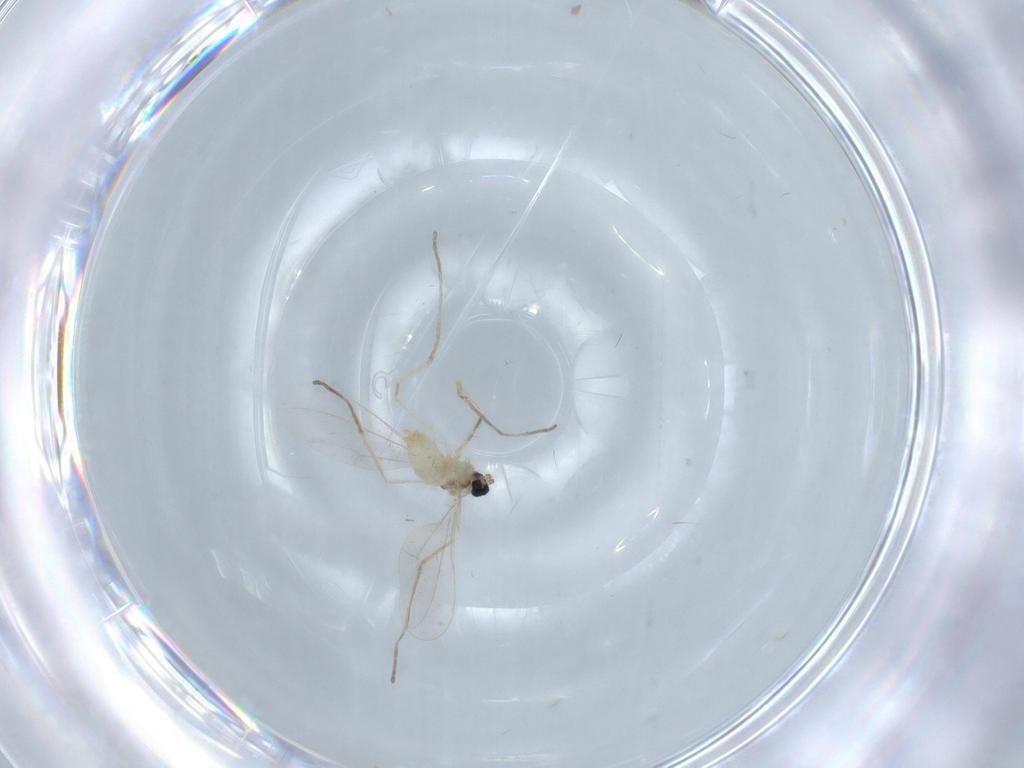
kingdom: Animalia
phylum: Arthropoda
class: Insecta
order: Diptera
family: Cecidomyiidae
